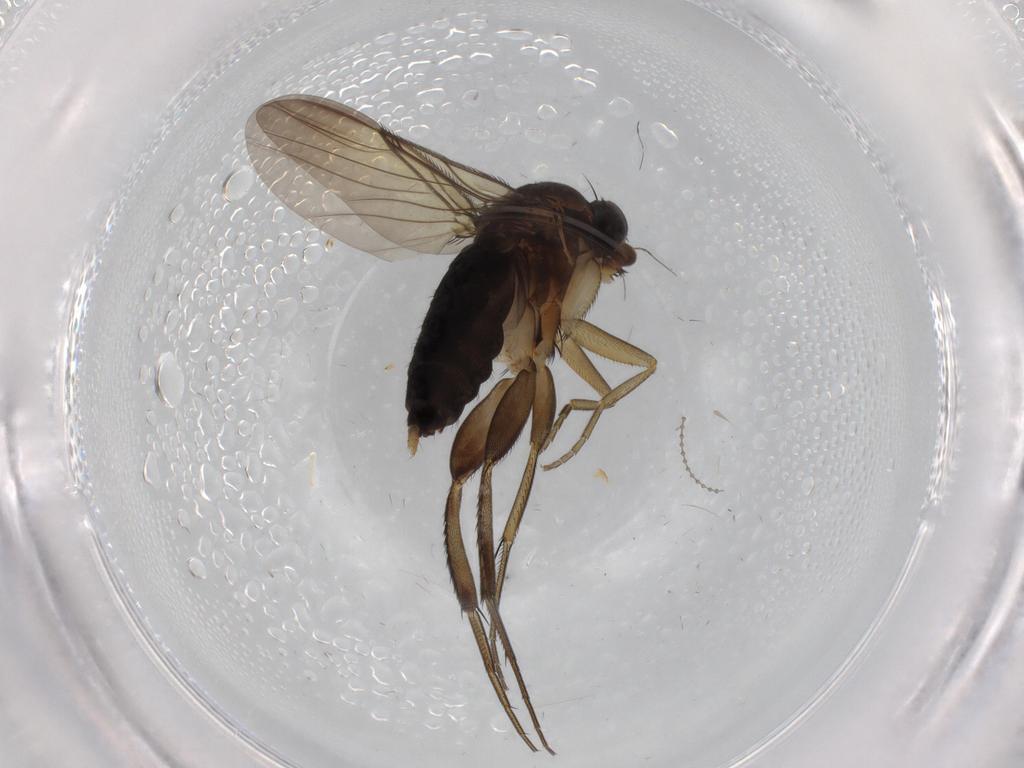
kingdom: Animalia
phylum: Arthropoda
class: Insecta
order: Diptera
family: Phoridae
